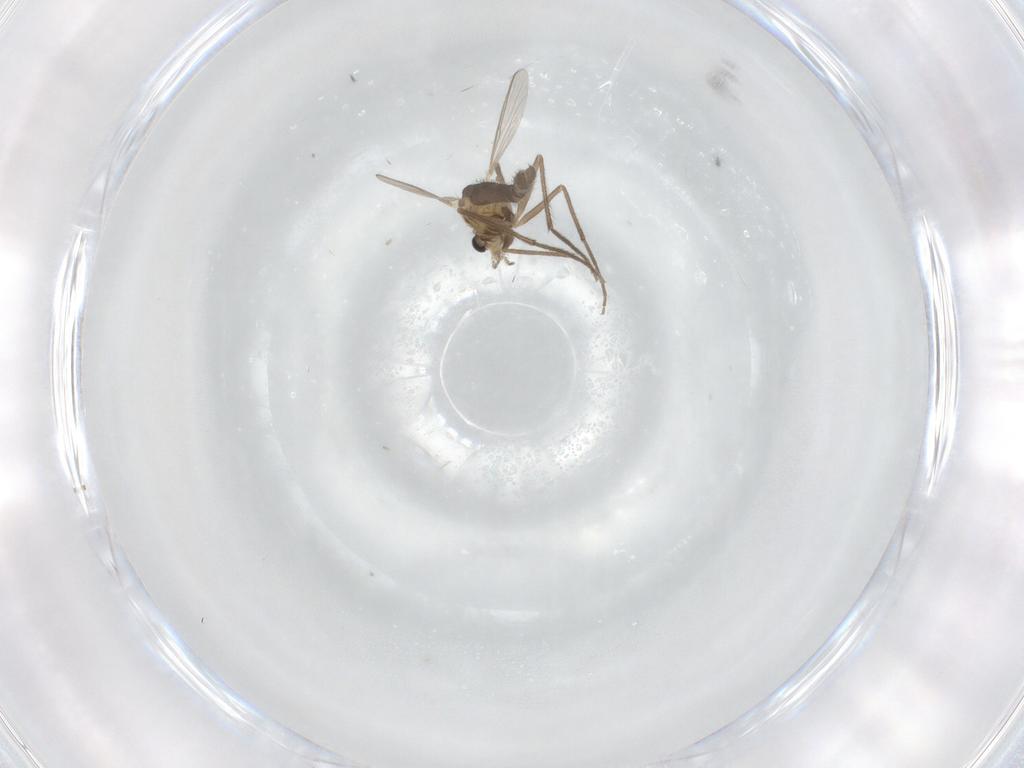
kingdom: Animalia
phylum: Arthropoda
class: Insecta
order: Diptera
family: Chironomidae
